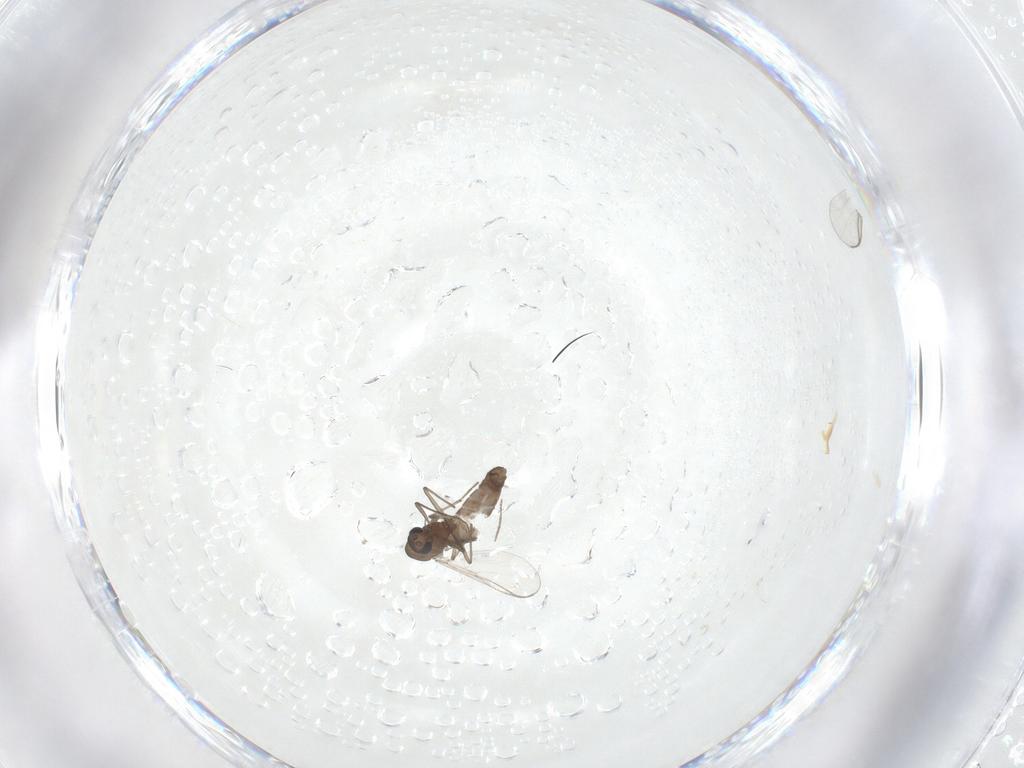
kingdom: Animalia
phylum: Arthropoda
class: Insecta
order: Diptera
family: Chironomidae
